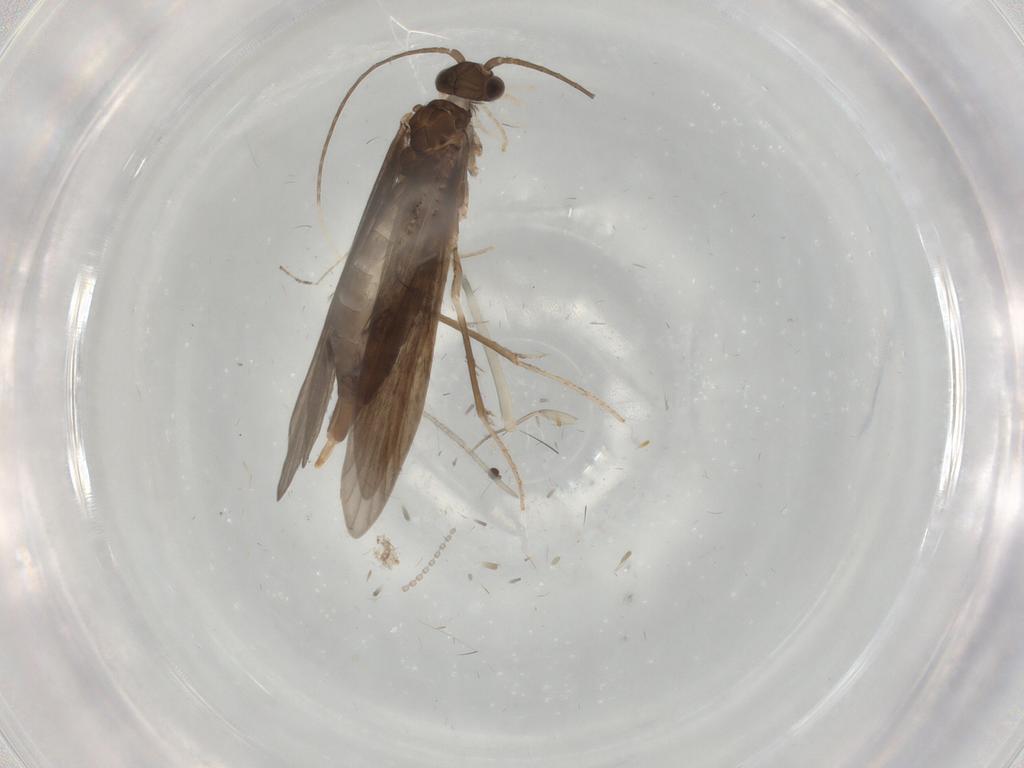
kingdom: Animalia
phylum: Arthropoda
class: Insecta
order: Trichoptera
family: Xiphocentronidae
